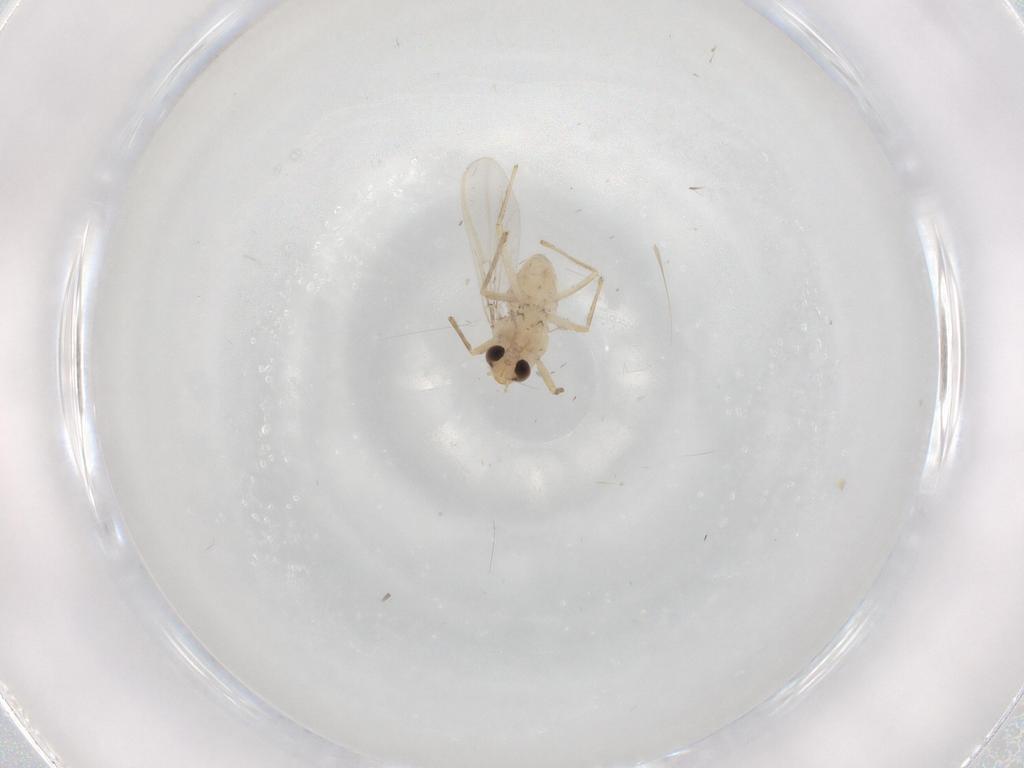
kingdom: Animalia
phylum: Arthropoda
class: Insecta
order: Diptera
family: Chironomidae
